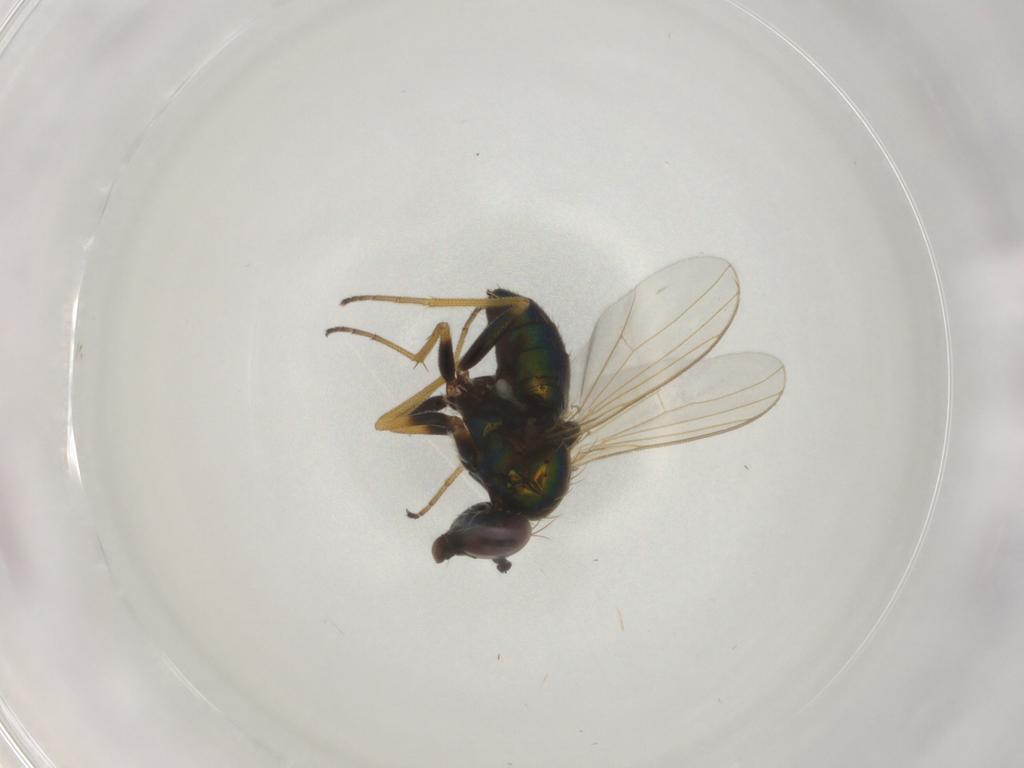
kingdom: Animalia
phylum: Arthropoda
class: Insecta
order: Diptera
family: Dolichopodidae
